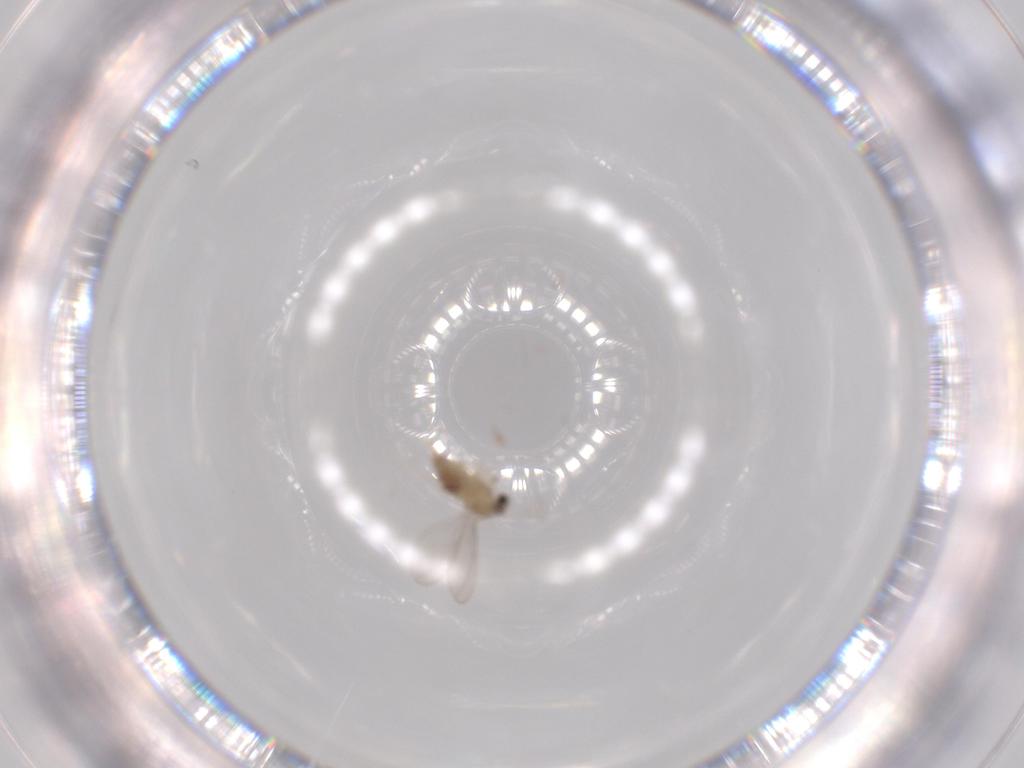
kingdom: Animalia
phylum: Arthropoda
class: Insecta
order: Diptera
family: Cecidomyiidae
